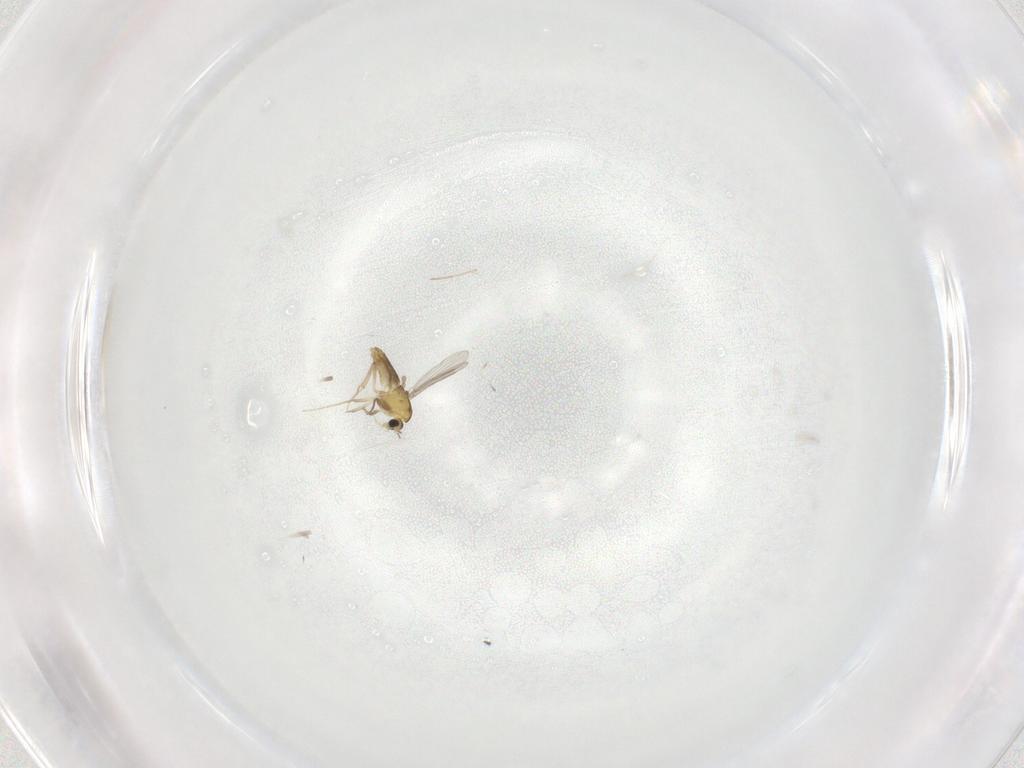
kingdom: Animalia
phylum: Arthropoda
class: Insecta
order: Diptera
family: Chironomidae
